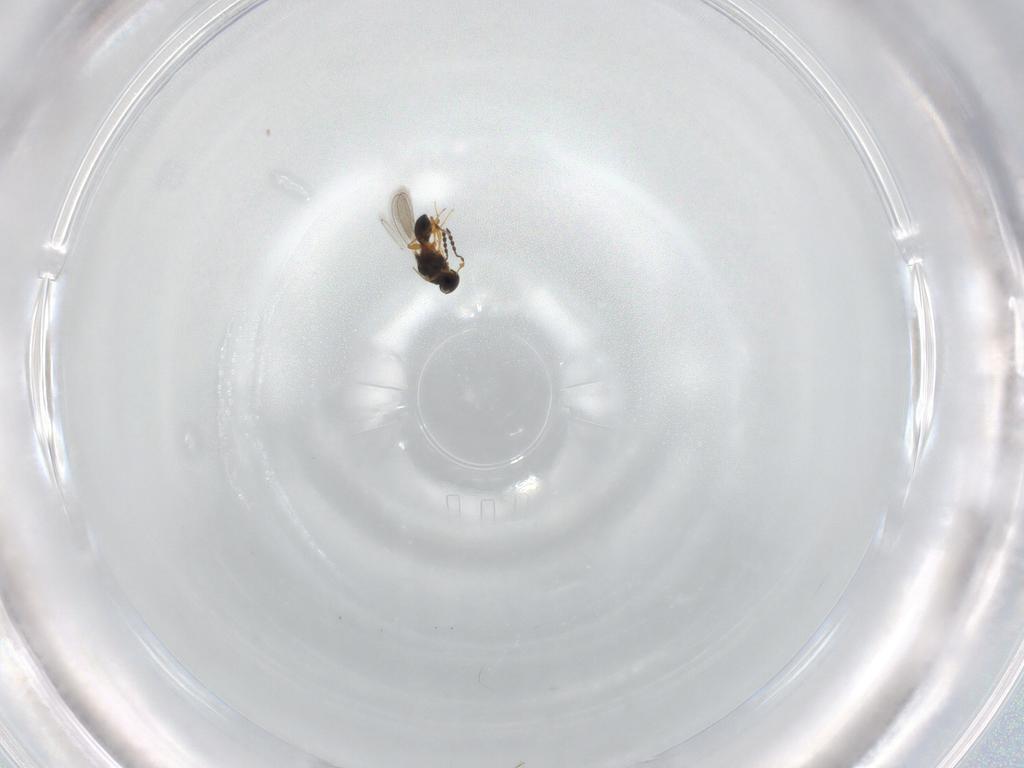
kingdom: Animalia
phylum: Arthropoda
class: Insecta
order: Hymenoptera
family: Platygastridae
